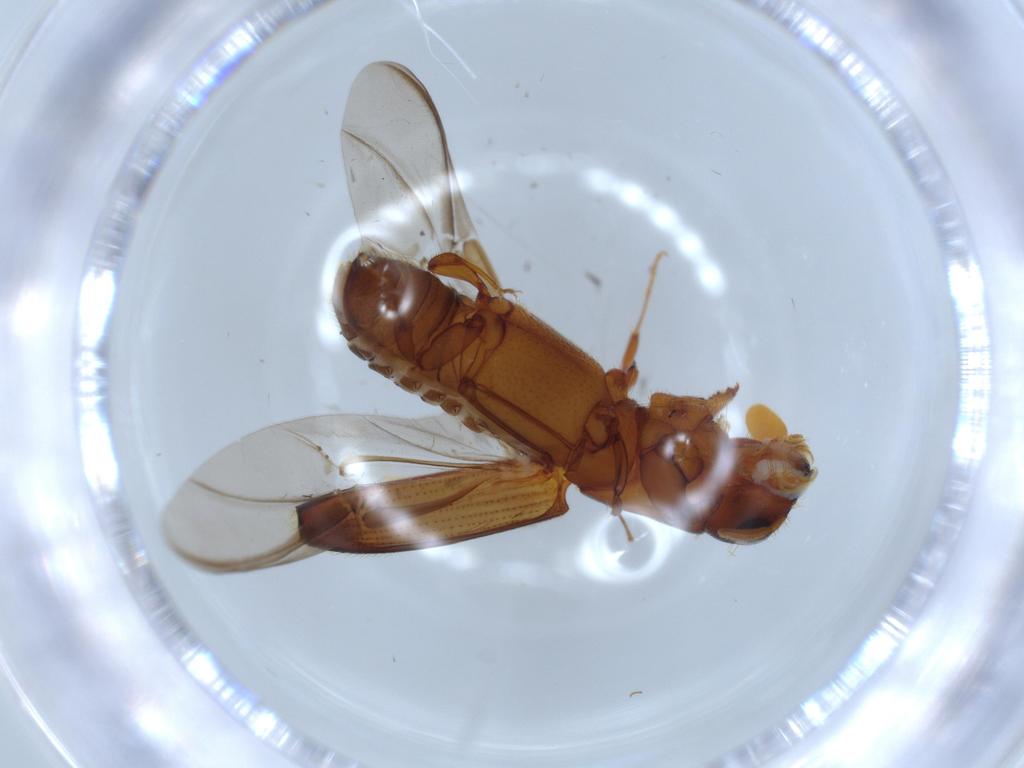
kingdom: Animalia
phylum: Arthropoda
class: Insecta
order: Coleoptera
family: Curculionidae
